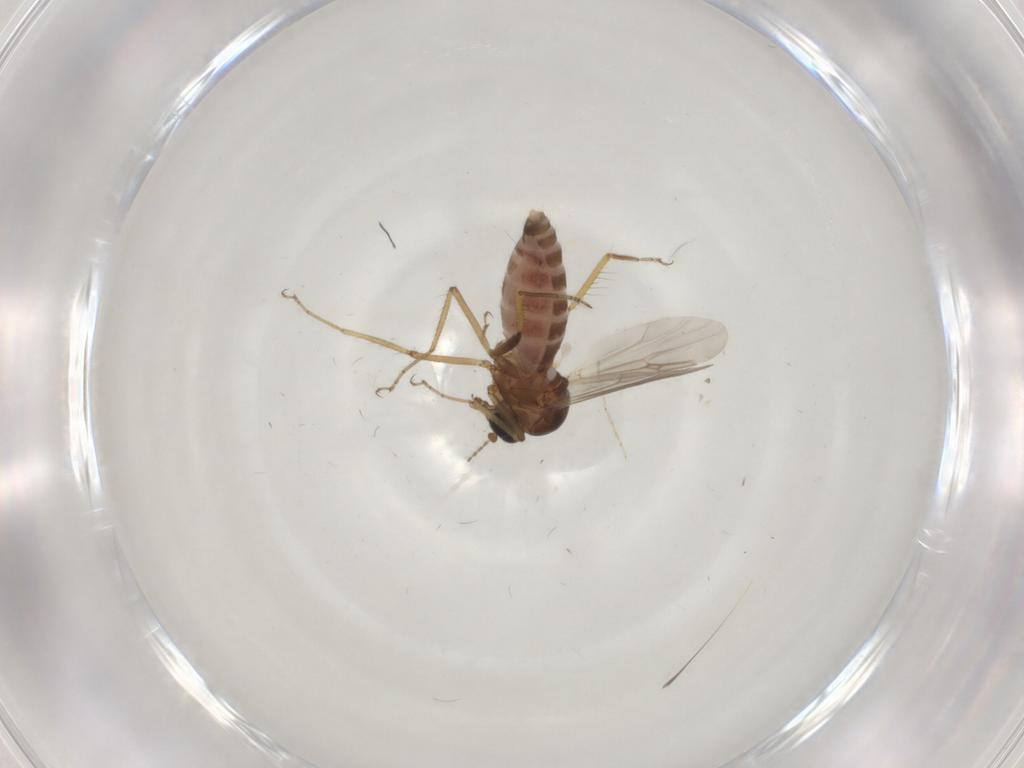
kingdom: Animalia
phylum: Arthropoda
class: Insecta
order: Diptera
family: Ceratopogonidae
